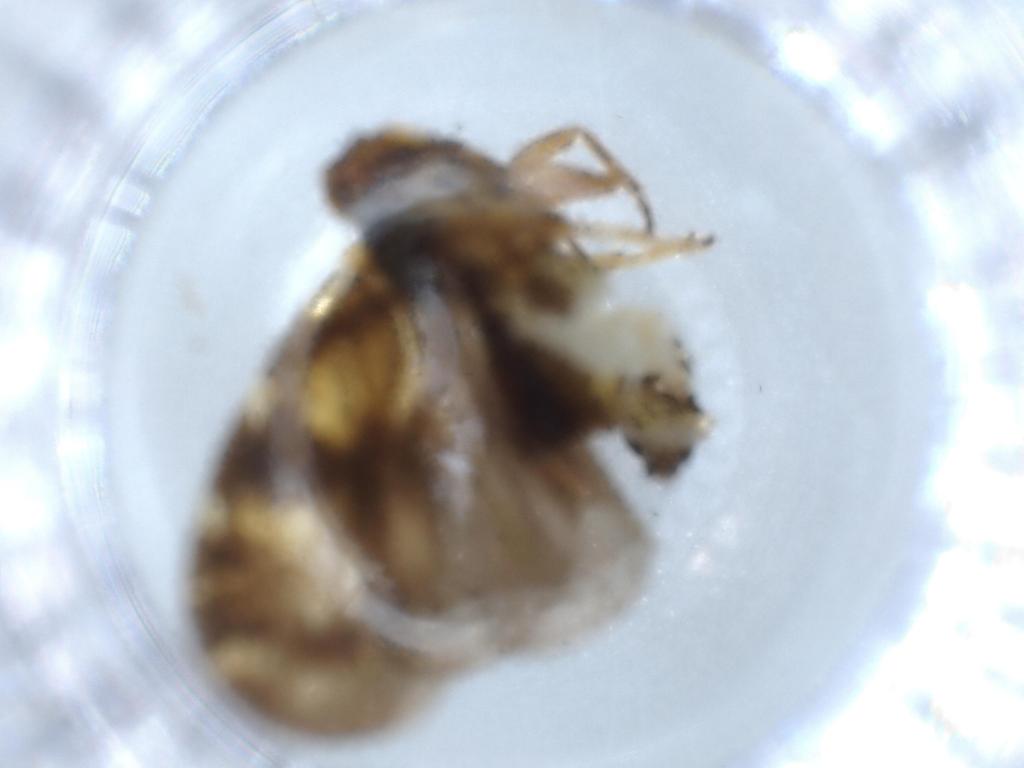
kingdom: Animalia
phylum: Arthropoda
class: Insecta
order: Hemiptera
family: Cixiidae
